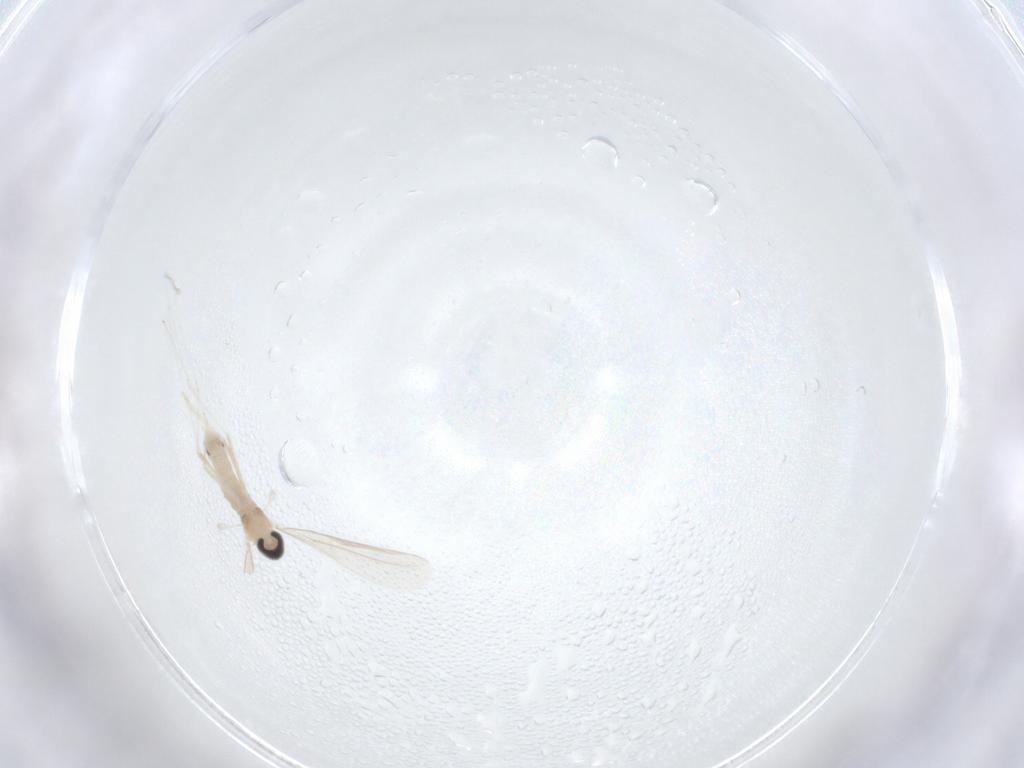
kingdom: Animalia
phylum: Arthropoda
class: Insecta
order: Diptera
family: Cecidomyiidae
